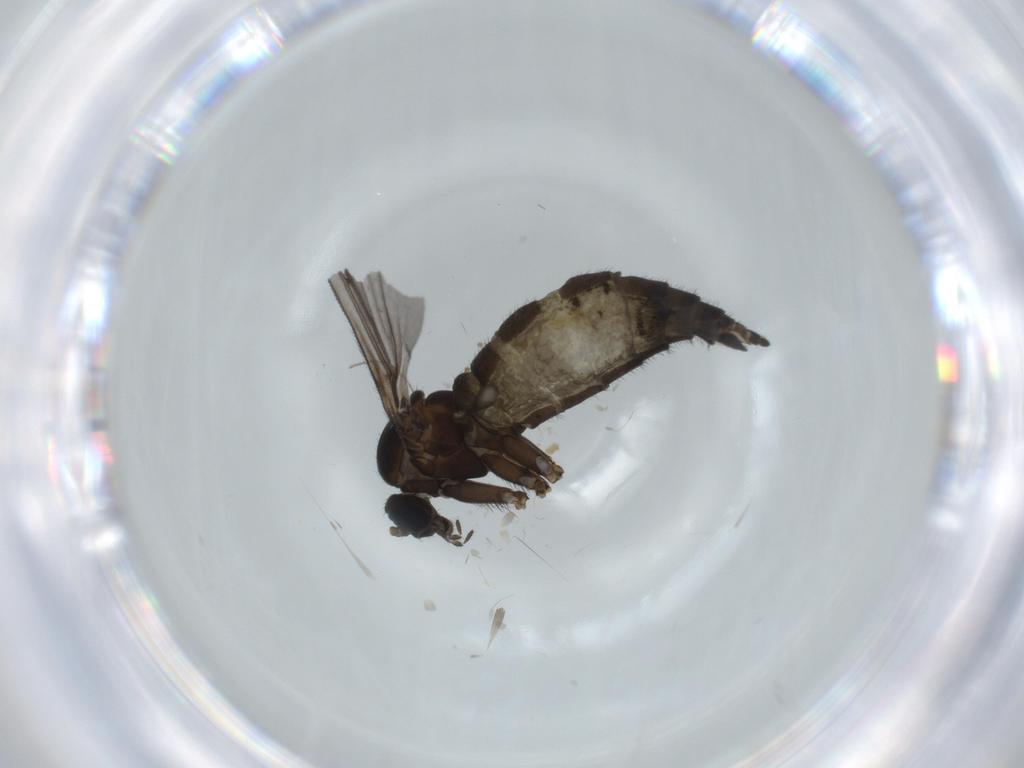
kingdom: Animalia
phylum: Arthropoda
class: Insecta
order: Diptera
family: Sciaridae
